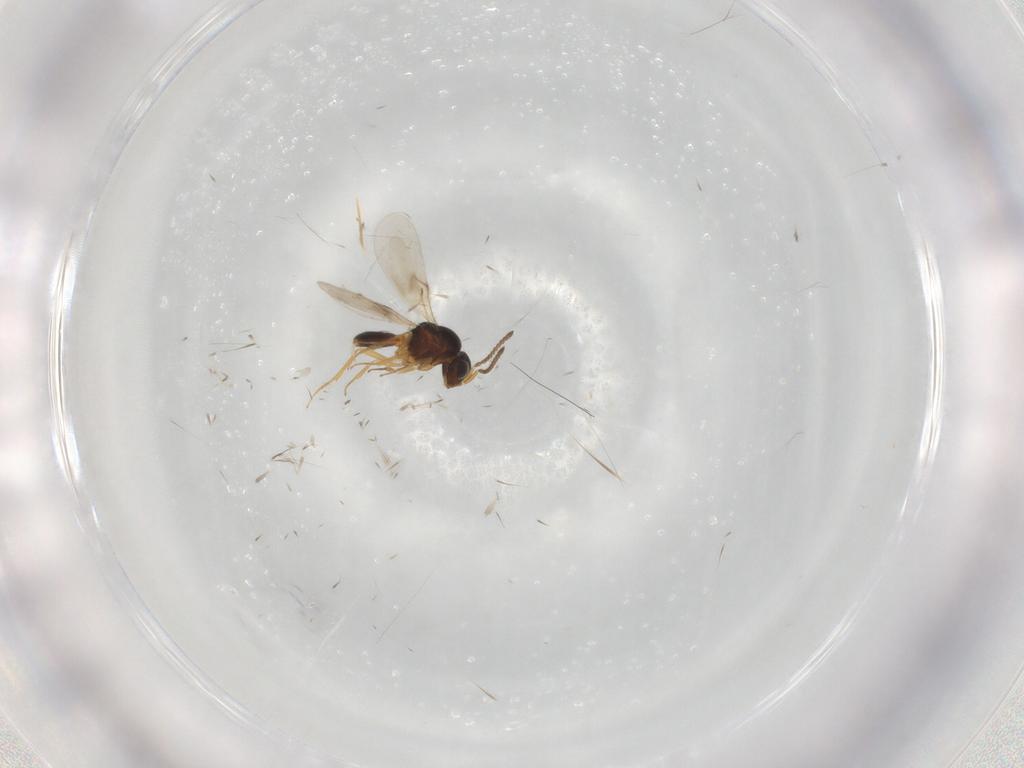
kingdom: Animalia
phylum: Arthropoda
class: Insecta
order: Hymenoptera
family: Scelionidae
